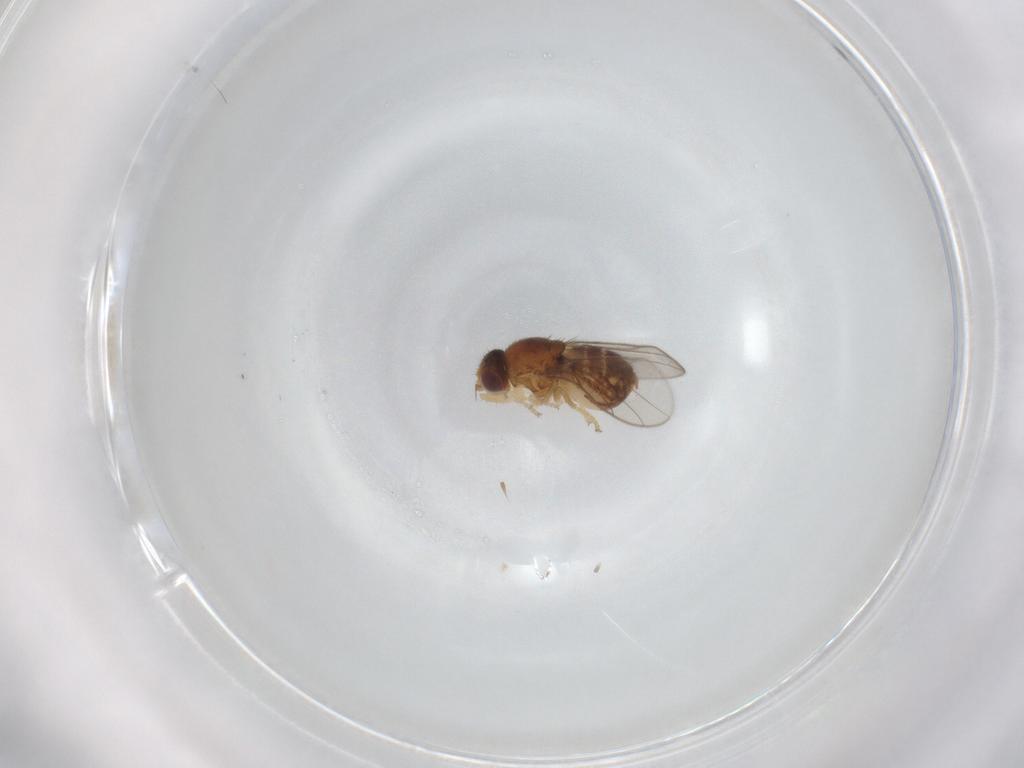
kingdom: Animalia
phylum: Arthropoda
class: Insecta
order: Diptera
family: Chloropidae
